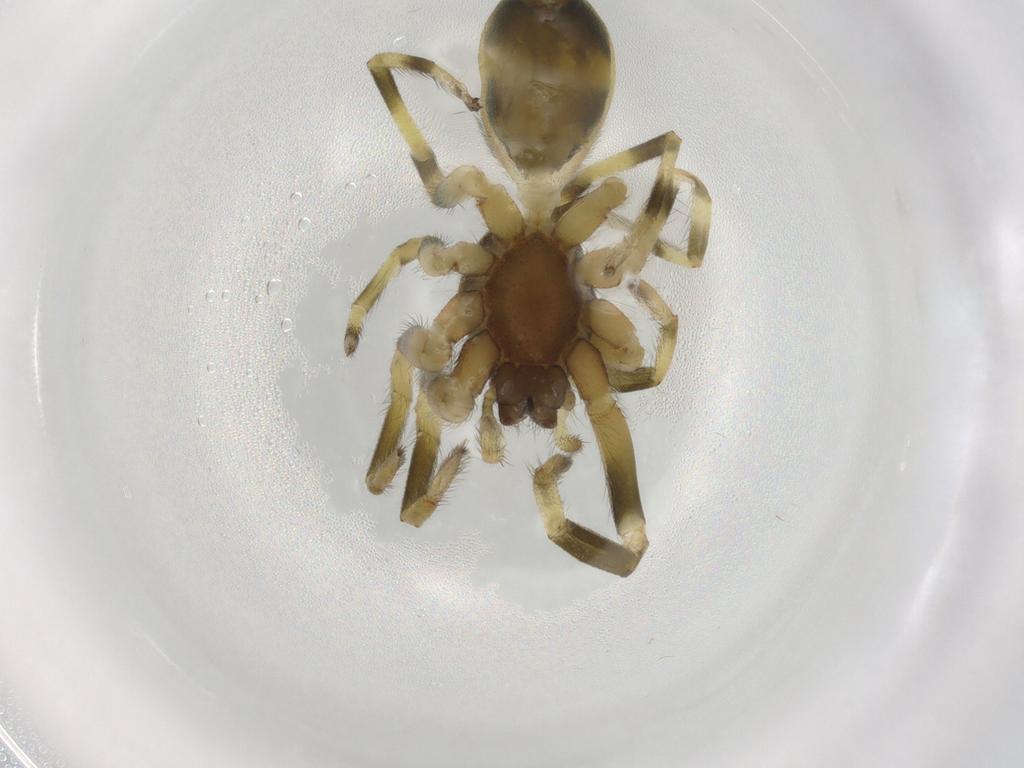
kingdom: Animalia
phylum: Arthropoda
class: Arachnida
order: Araneae
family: Lamponidae
